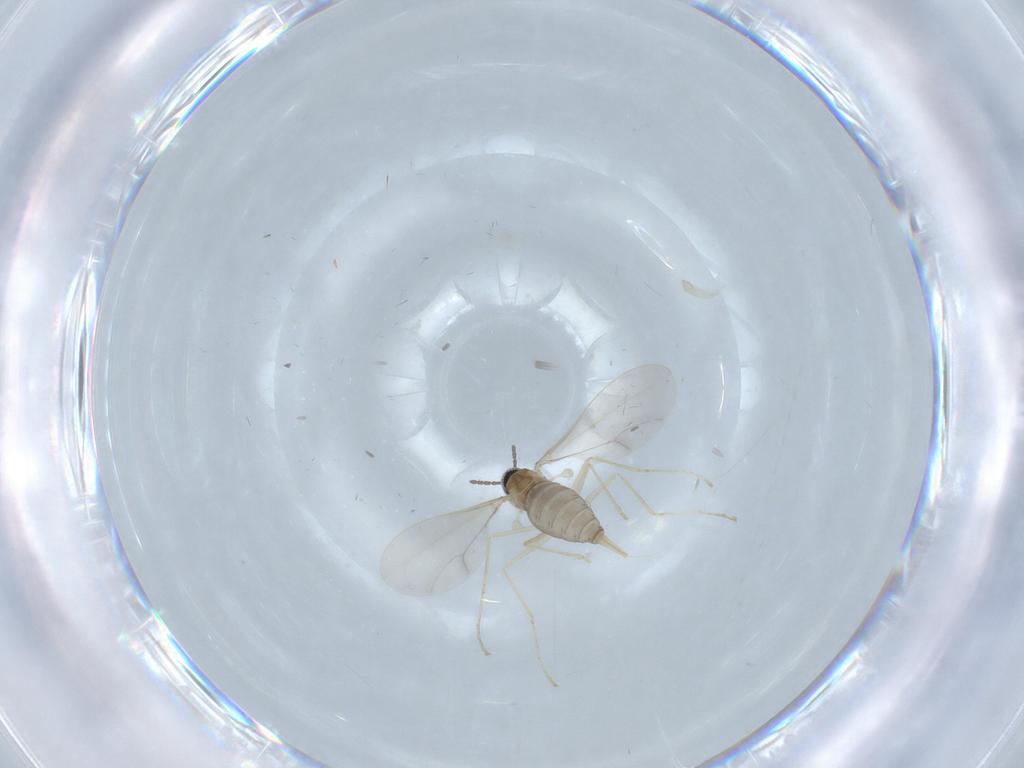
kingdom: Animalia
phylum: Arthropoda
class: Insecta
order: Diptera
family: Cecidomyiidae
